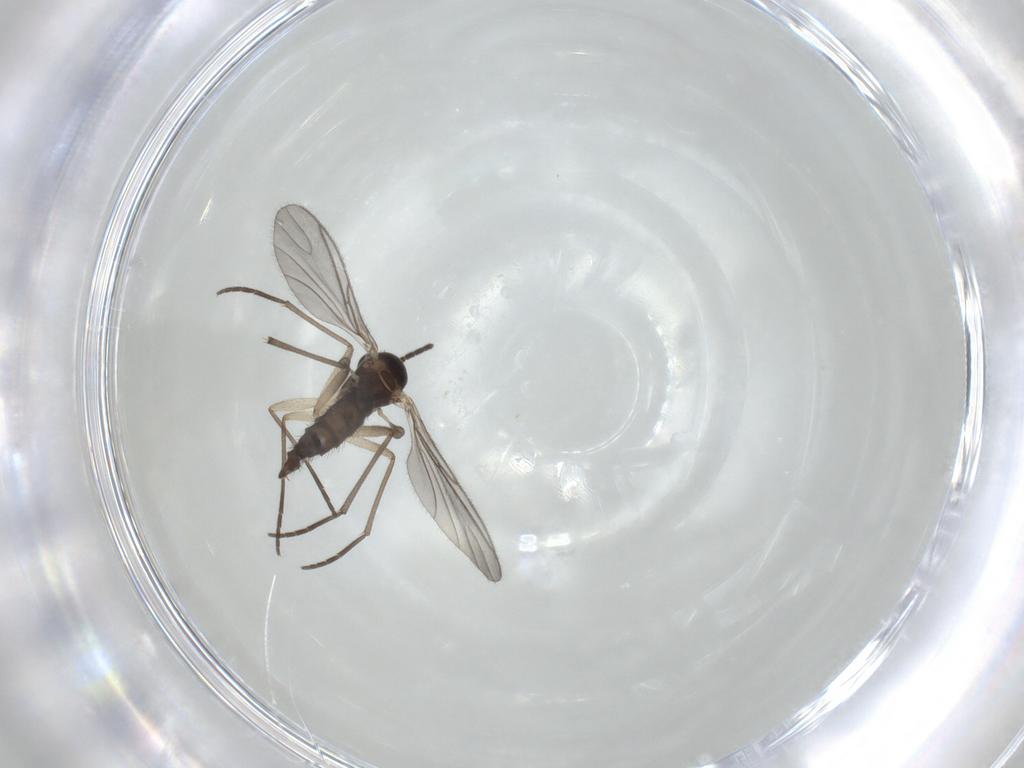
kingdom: Animalia
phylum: Arthropoda
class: Insecta
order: Diptera
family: Sciaridae
